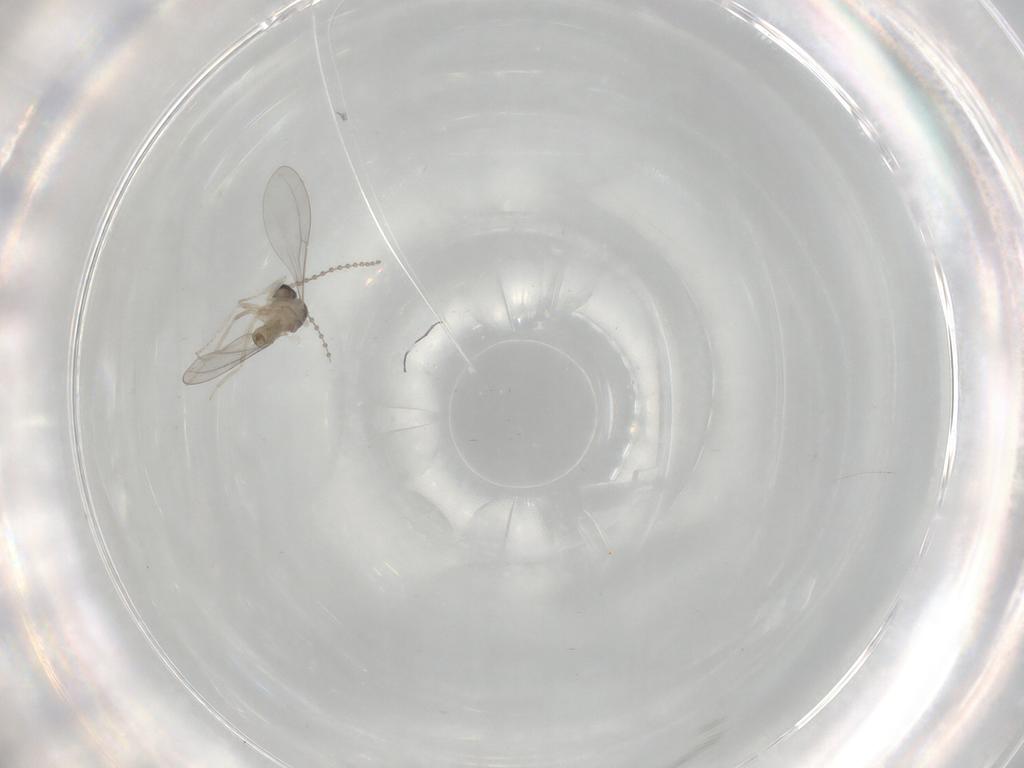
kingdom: Animalia
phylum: Arthropoda
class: Insecta
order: Diptera
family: Cecidomyiidae
